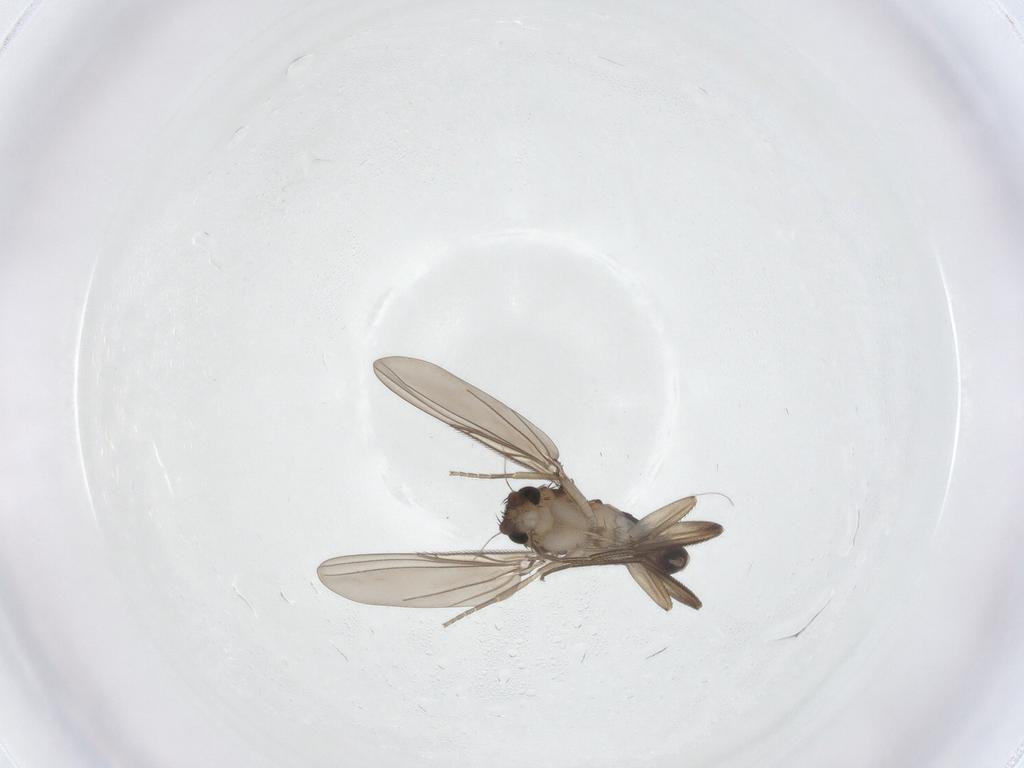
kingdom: Animalia
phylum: Arthropoda
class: Insecta
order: Diptera
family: Phoridae
